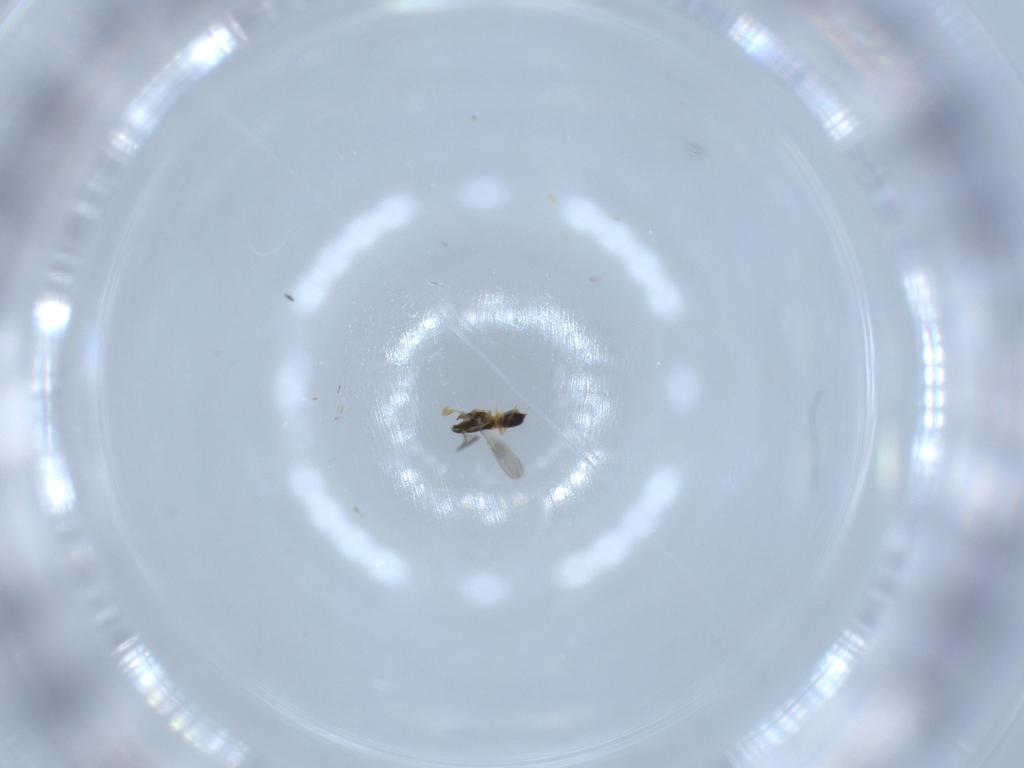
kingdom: Animalia
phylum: Arthropoda
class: Insecta
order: Hymenoptera
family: Scelionidae
